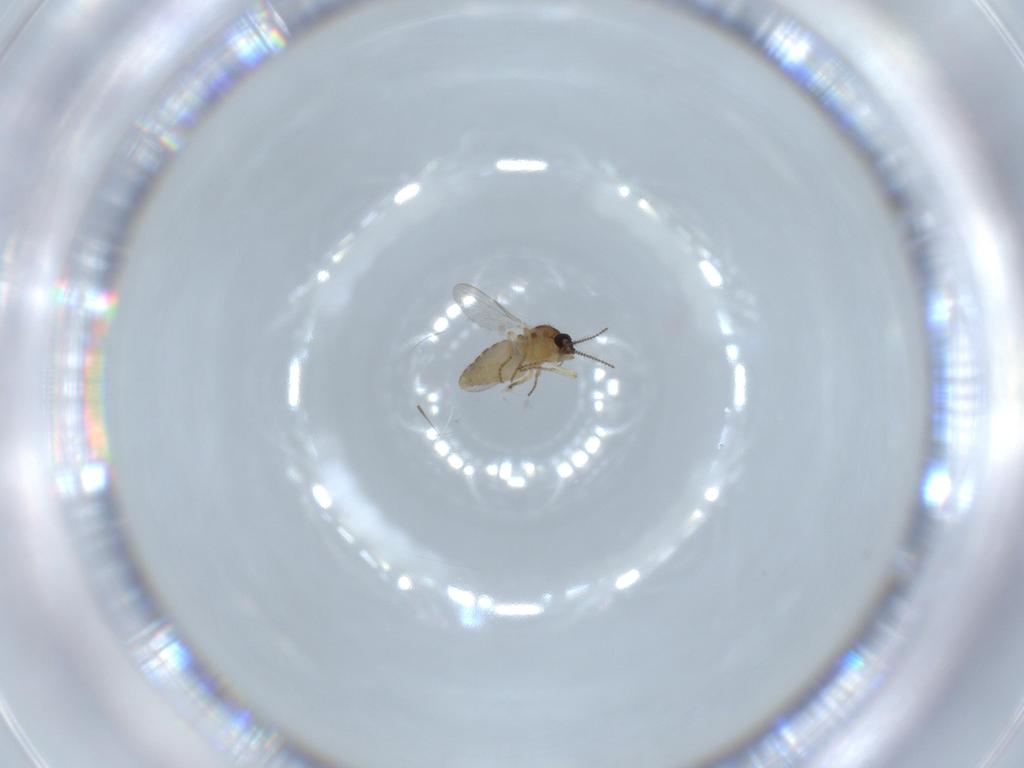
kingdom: Animalia
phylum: Arthropoda
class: Insecta
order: Diptera
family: Ceratopogonidae
